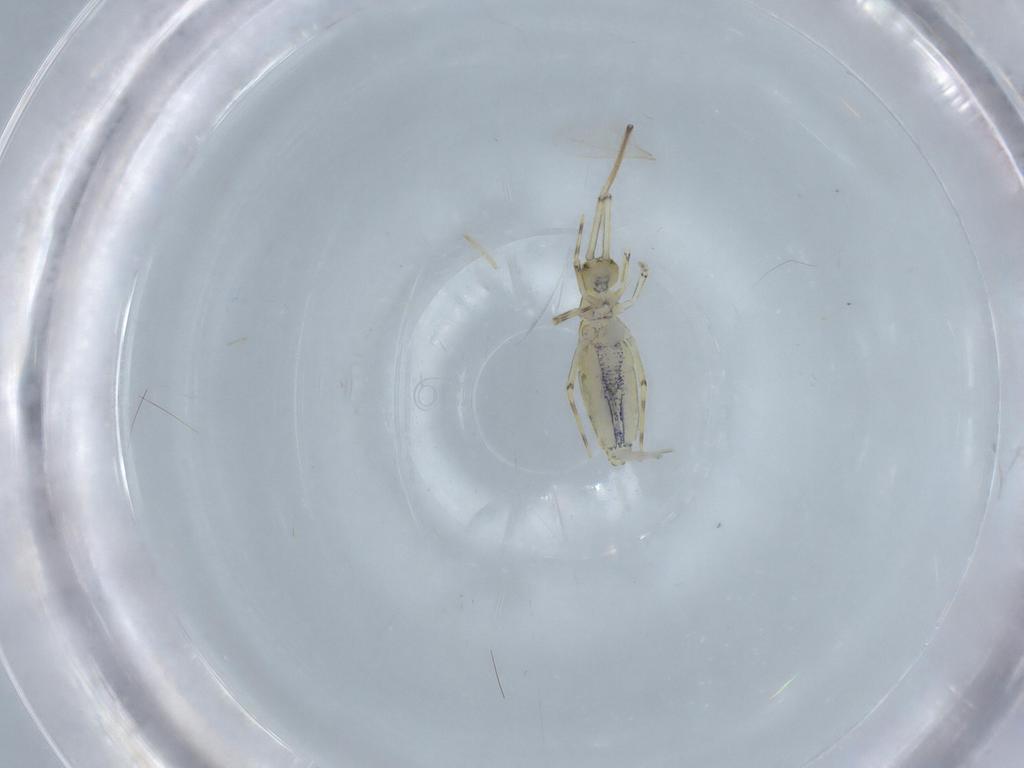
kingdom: Animalia
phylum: Arthropoda
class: Collembola
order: Entomobryomorpha
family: Paronellidae
